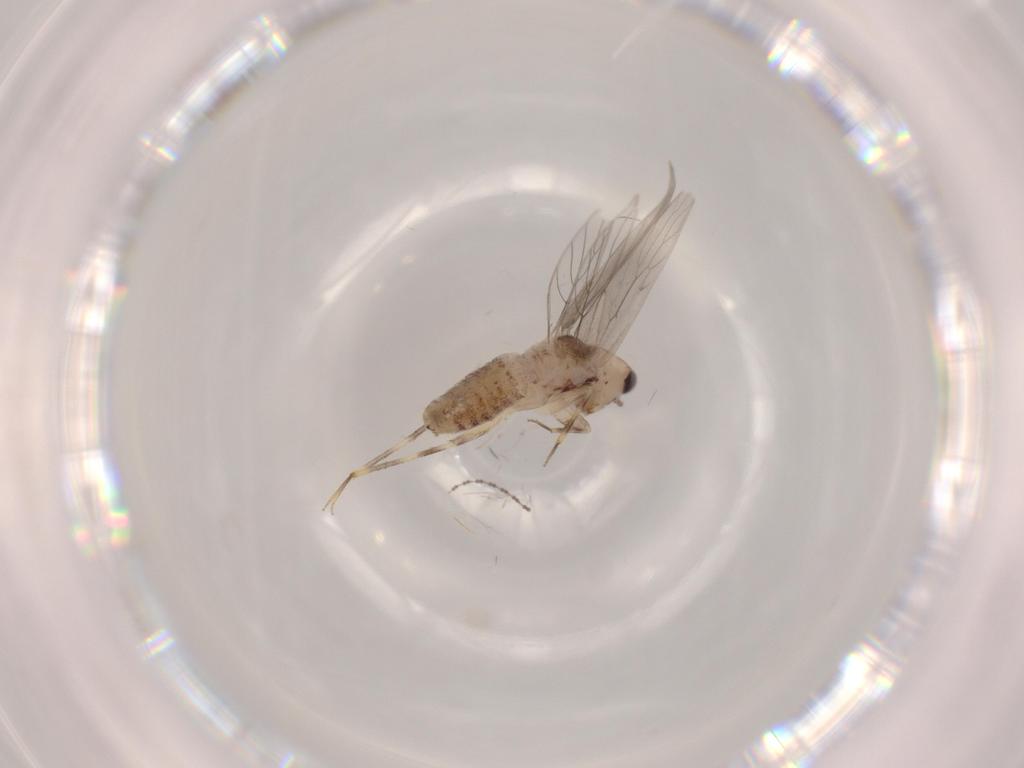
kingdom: Animalia
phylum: Arthropoda
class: Insecta
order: Psocodea
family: Lepidopsocidae
